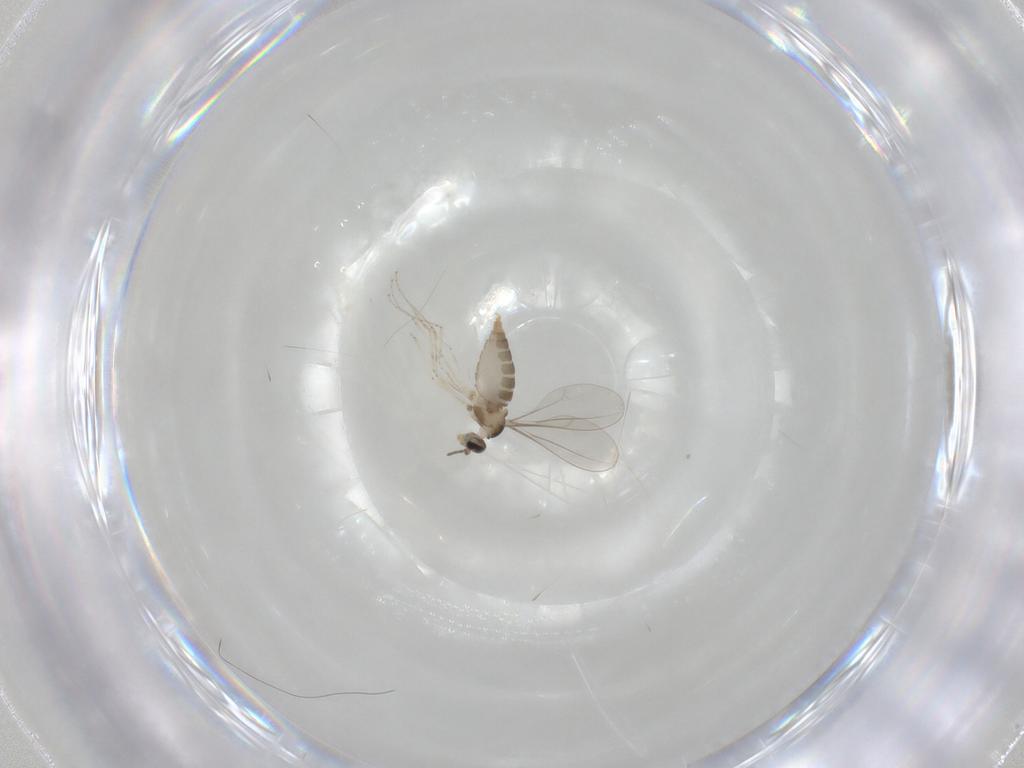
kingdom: Animalia
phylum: Arthropoda
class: Insecta
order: Diptera
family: Cecidomyiidae
